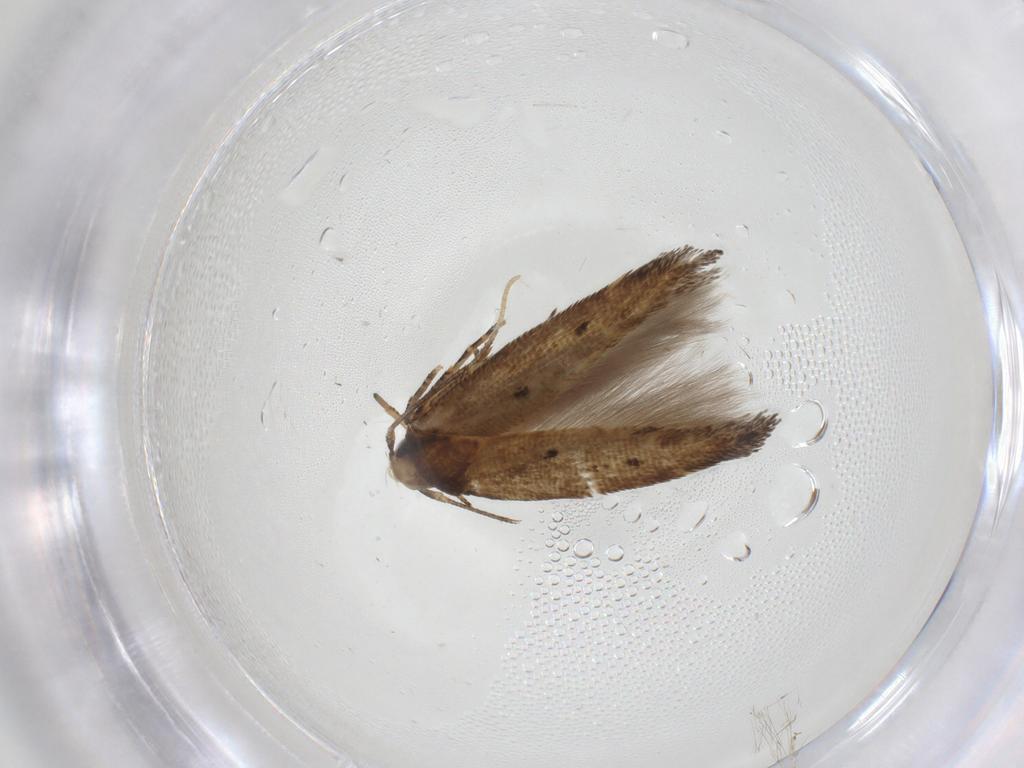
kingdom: Animalia
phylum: Arthropoda
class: Insecta
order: Lepidoptera
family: Cosmopterigidae
